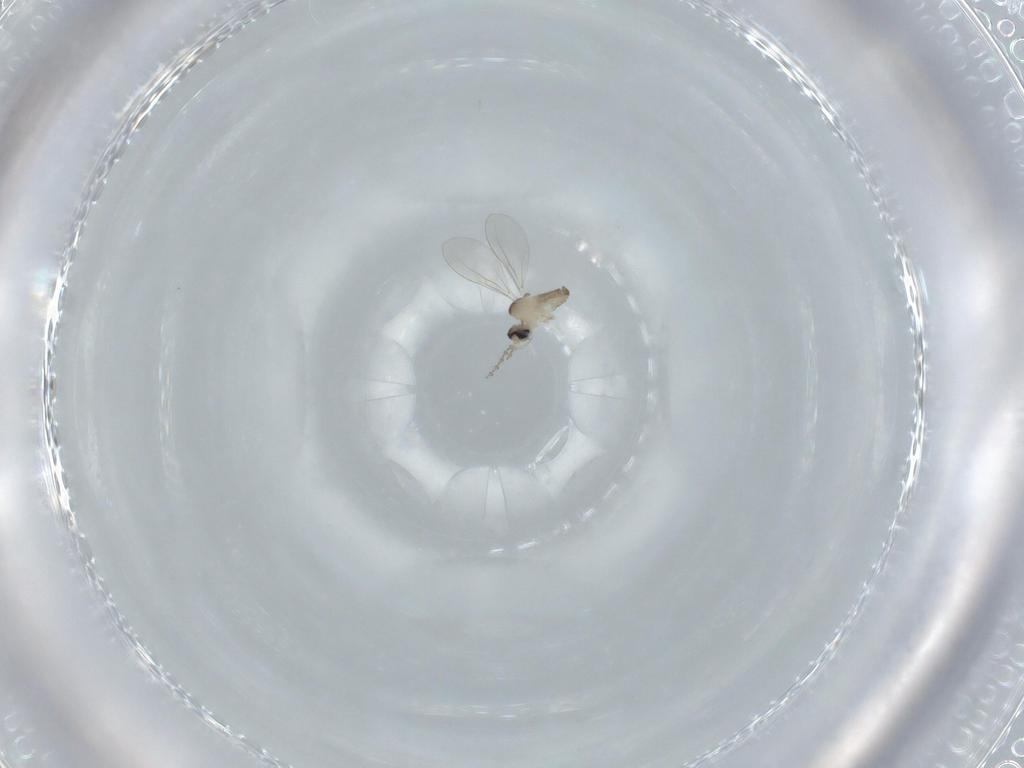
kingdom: Animalia
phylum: Arthropoda
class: Insecta
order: Diptera
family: Cecidomyiidae
